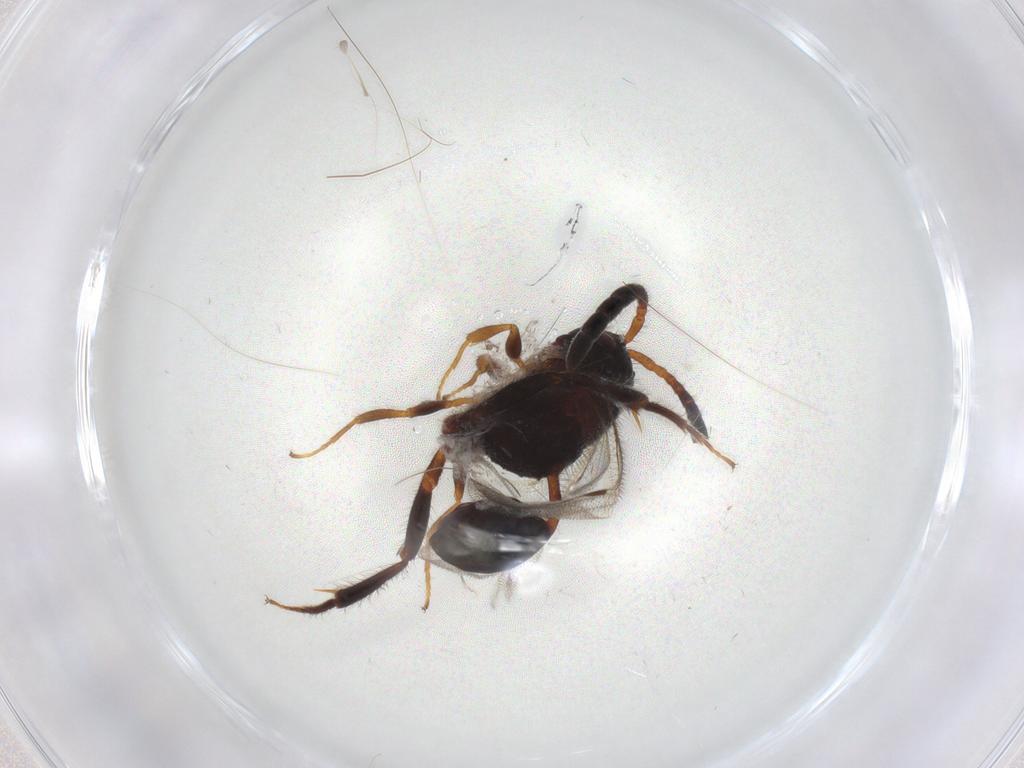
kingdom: Animalia
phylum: Arthropoda
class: Insecta
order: Hymenoptera
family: Evaniidae
